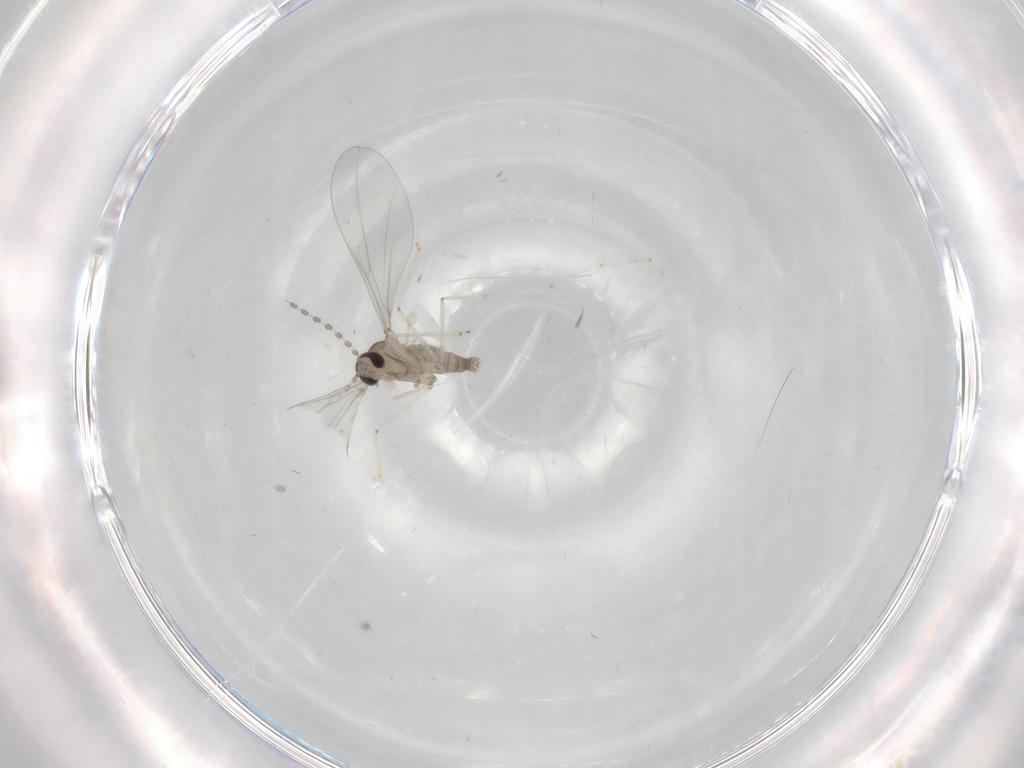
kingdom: Animalia
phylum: Arthropoda
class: Insecta
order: Diptera
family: Cecidomyiidae
